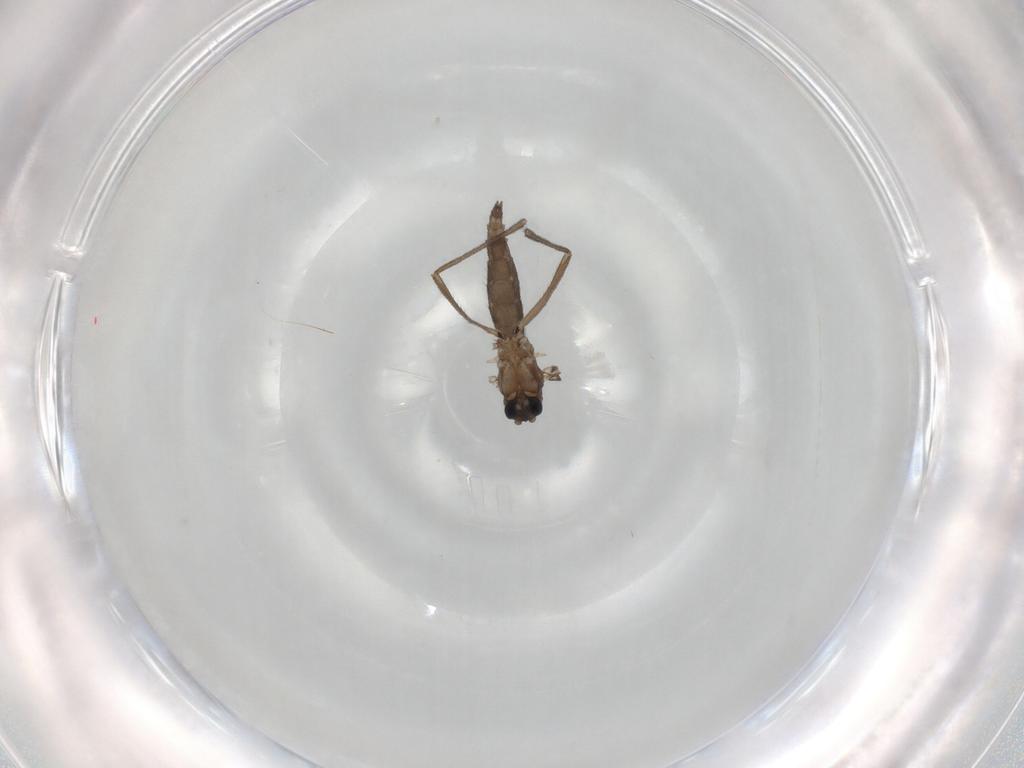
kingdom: Animalia
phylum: Arthropoda
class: Insecta
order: Diptera
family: Sciaridae
